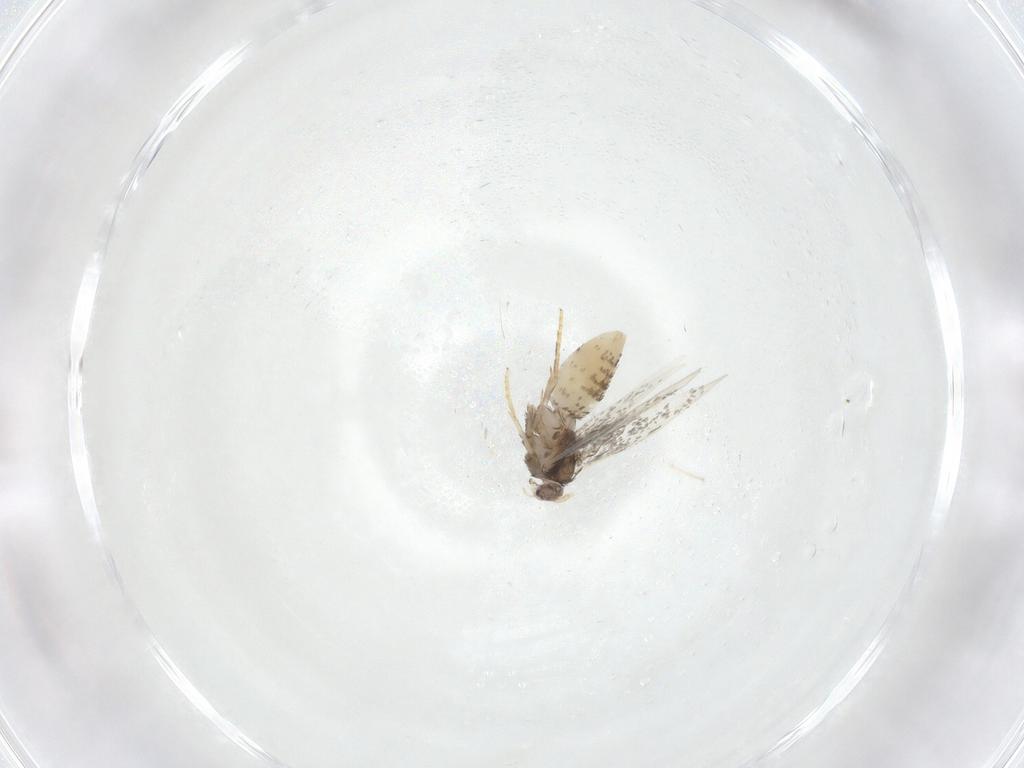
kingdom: Animalia
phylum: Arthropoda
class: Insecta
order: Lepidoptera
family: Nepticulidae
